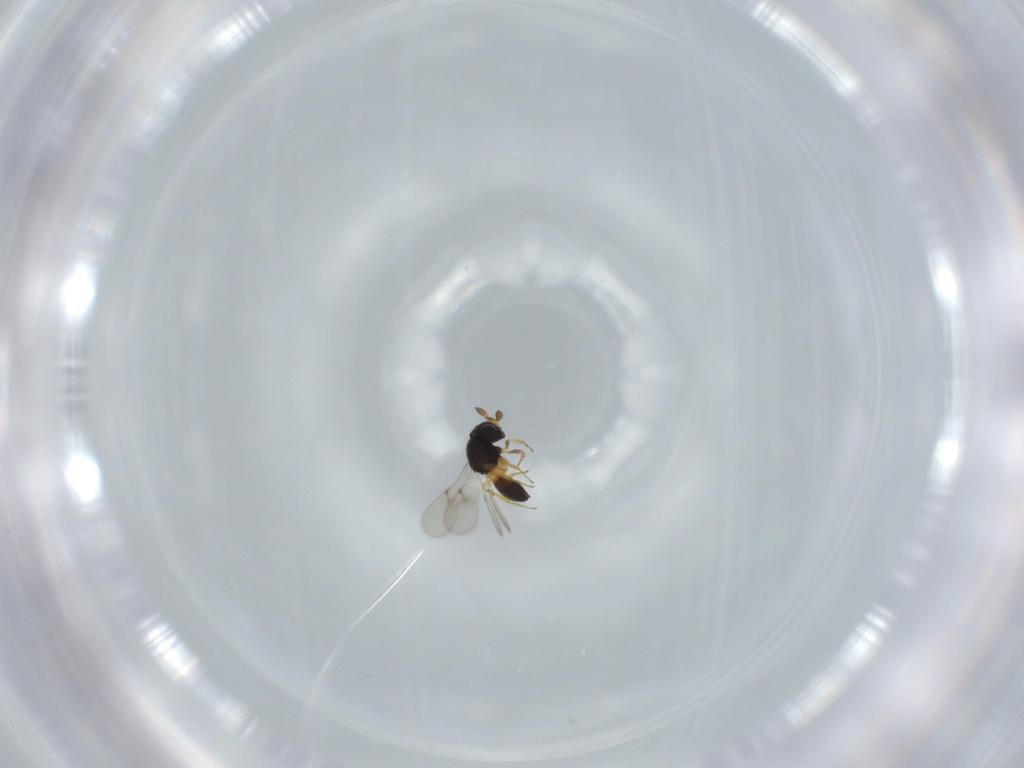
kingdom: Animalia
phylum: Arthropoda
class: Insecta
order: Hymenoptera
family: Scelionidae
